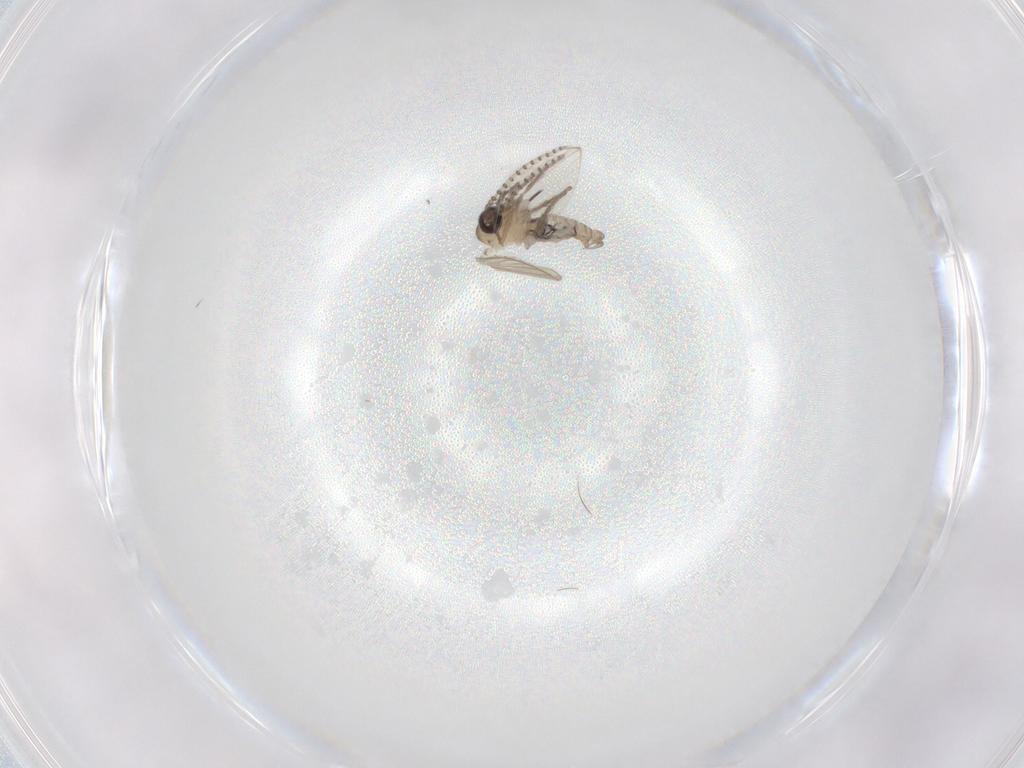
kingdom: Animalia
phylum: Arthropoda
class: Insecta
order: Diptera
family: Psychodidae
